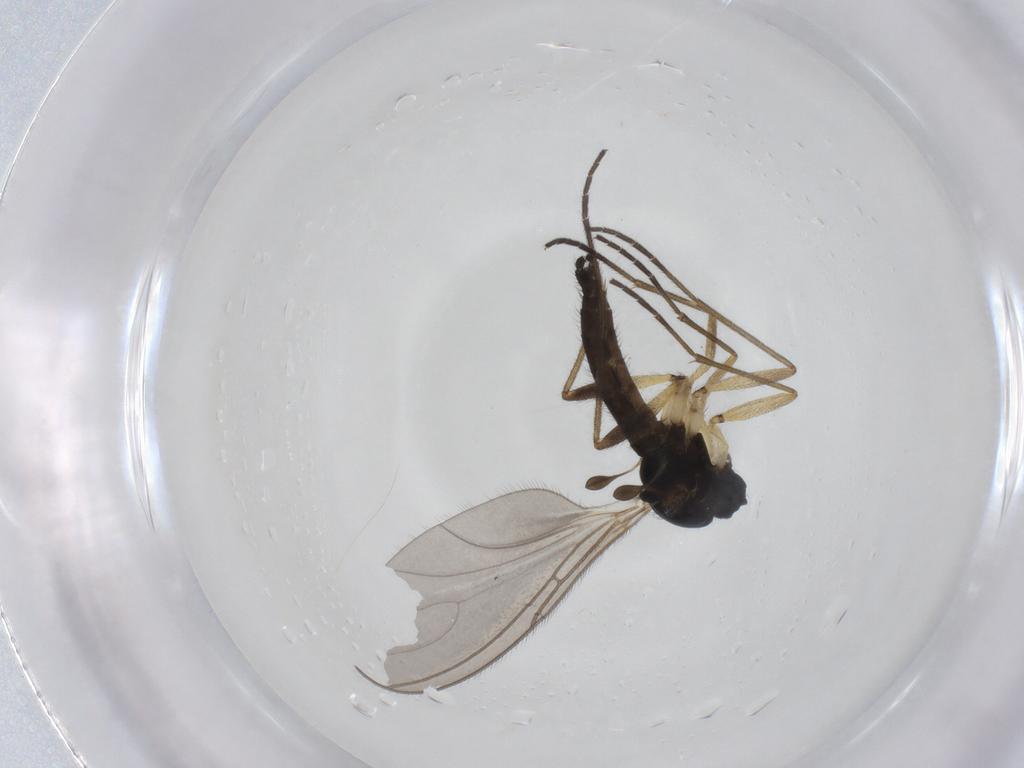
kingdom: Animalia
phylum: Arthropoda
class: Insecta
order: Diptera
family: Sciaridae
